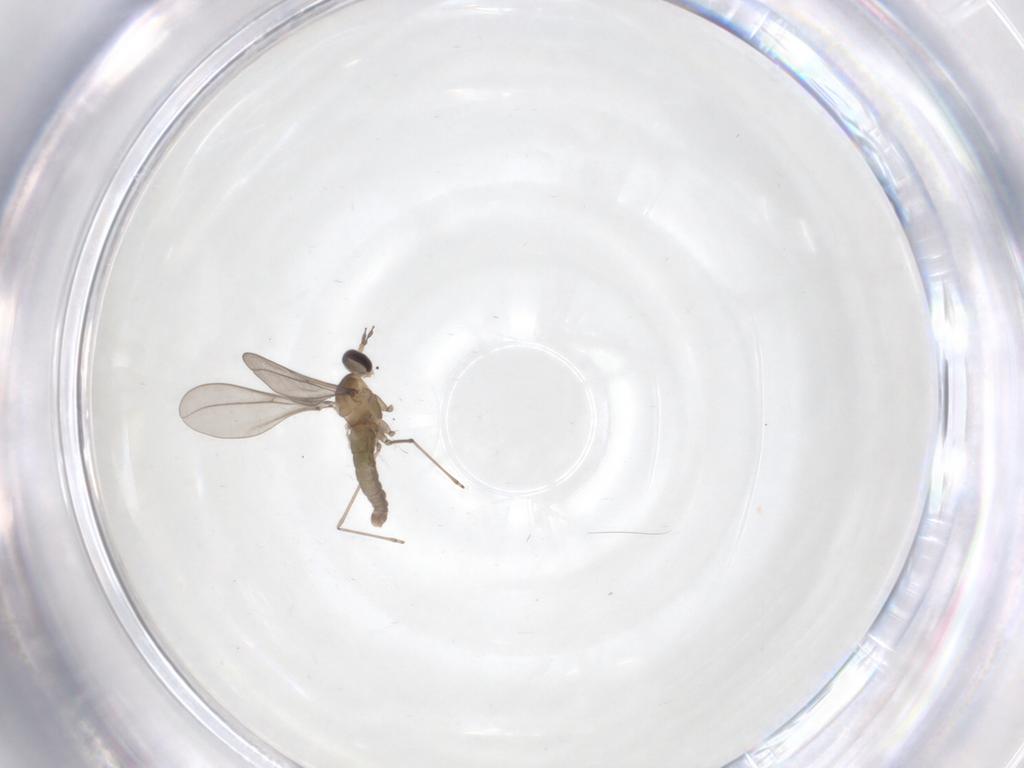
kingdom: Animalia
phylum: Arthropoda
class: Insecta
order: Diptera
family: Cecidomyiidae
